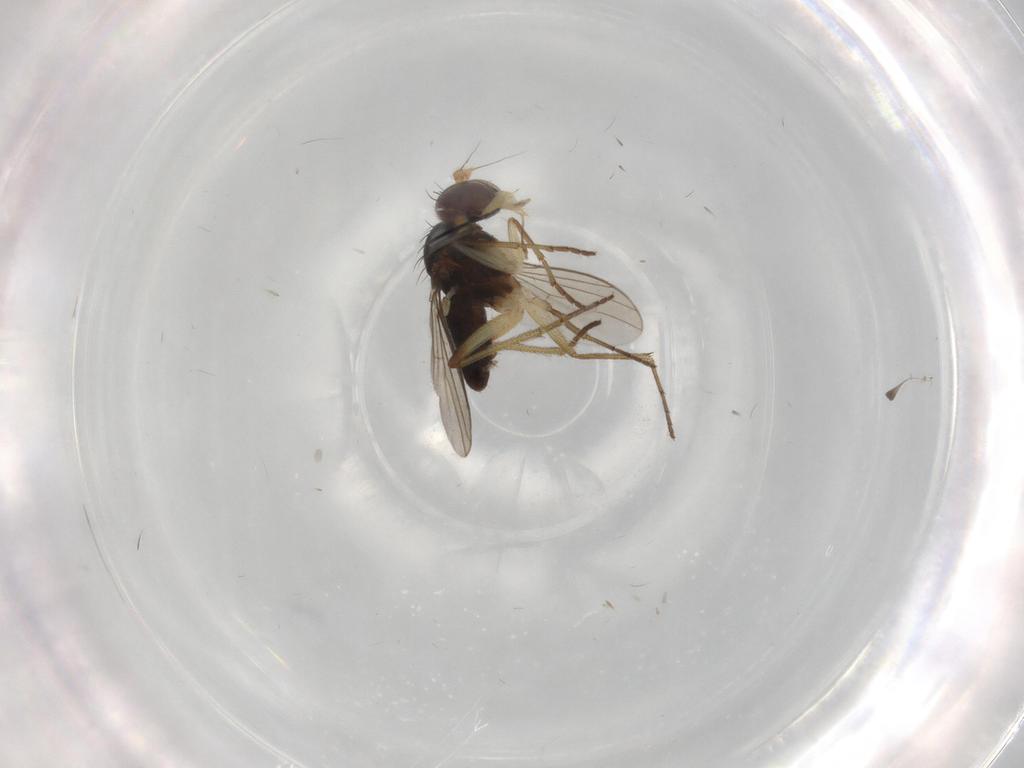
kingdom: Animalia
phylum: Arthropoda
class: Insecta
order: Diptera
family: Dolichopodidae
